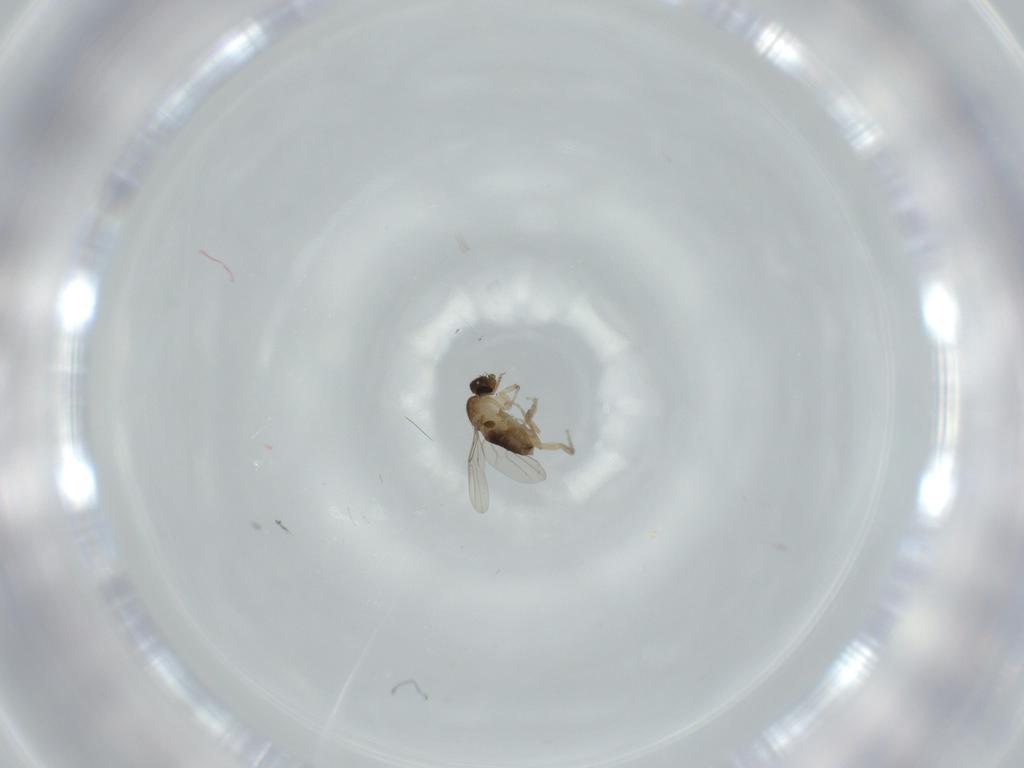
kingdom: Animalia
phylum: Arthropoda
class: Insecta
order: Diptera
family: Phoridae
